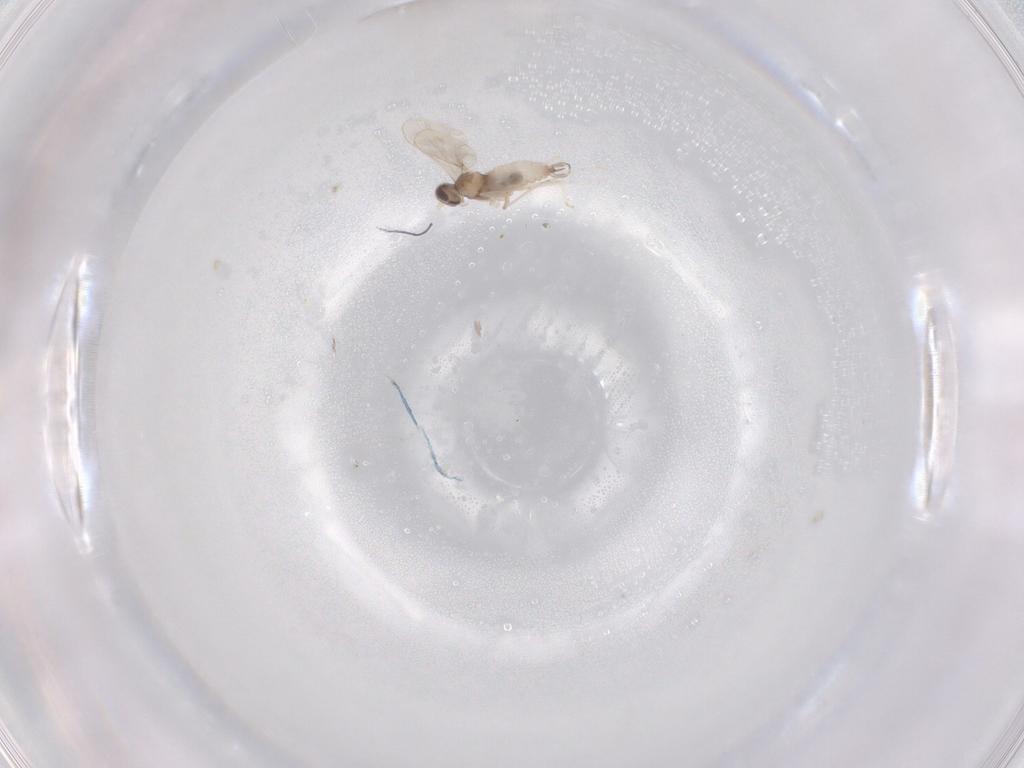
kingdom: Animalia
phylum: Arthropoda
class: Insecta
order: Diptera
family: Cecidomyiidae
